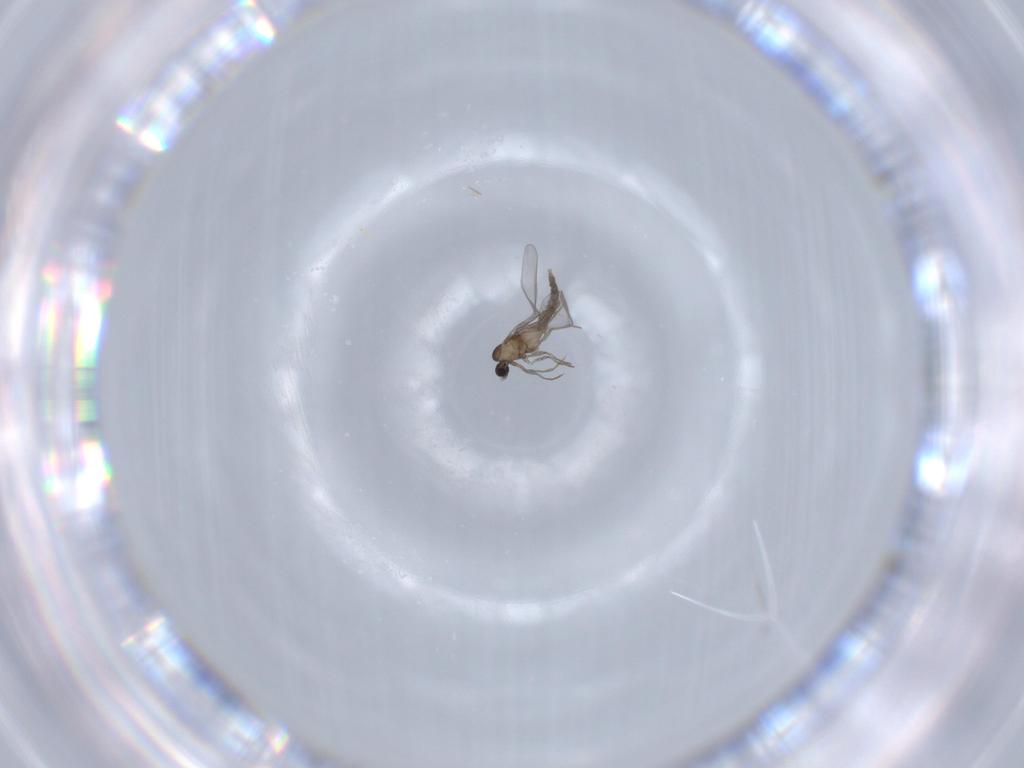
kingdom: Animalia
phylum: Arthropoda
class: Insecta
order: Diptera
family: Cecidomyiidae
